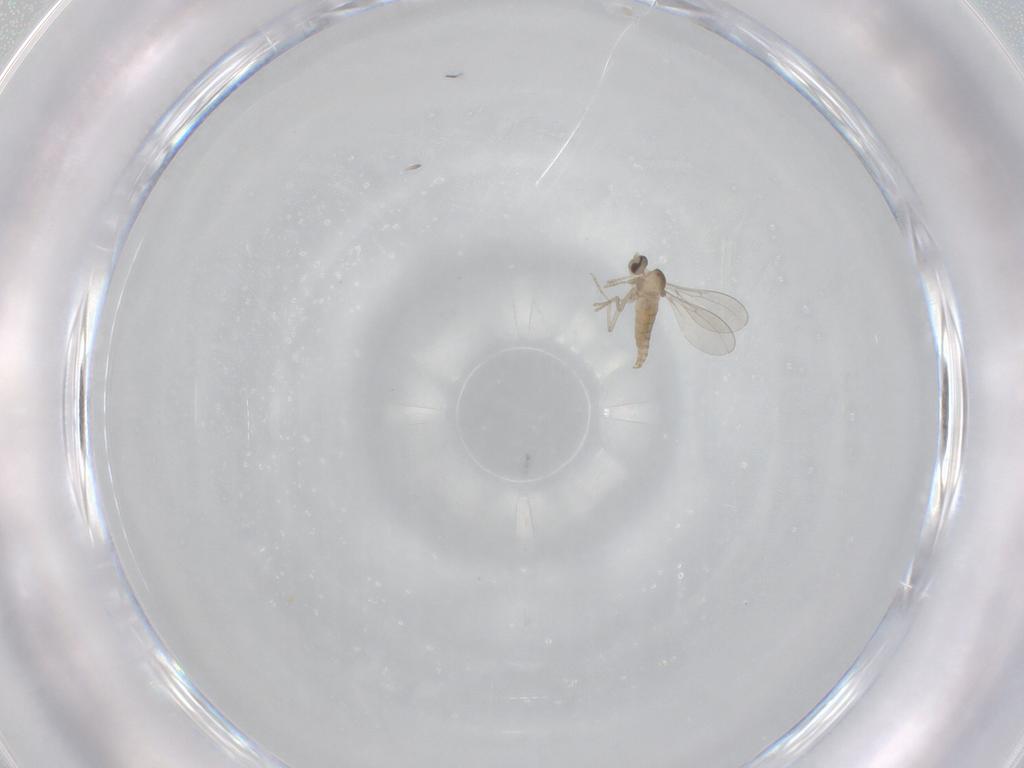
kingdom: Animalia
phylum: Arthropoda
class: Insecta
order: Diptera
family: Cecidomyiidae
